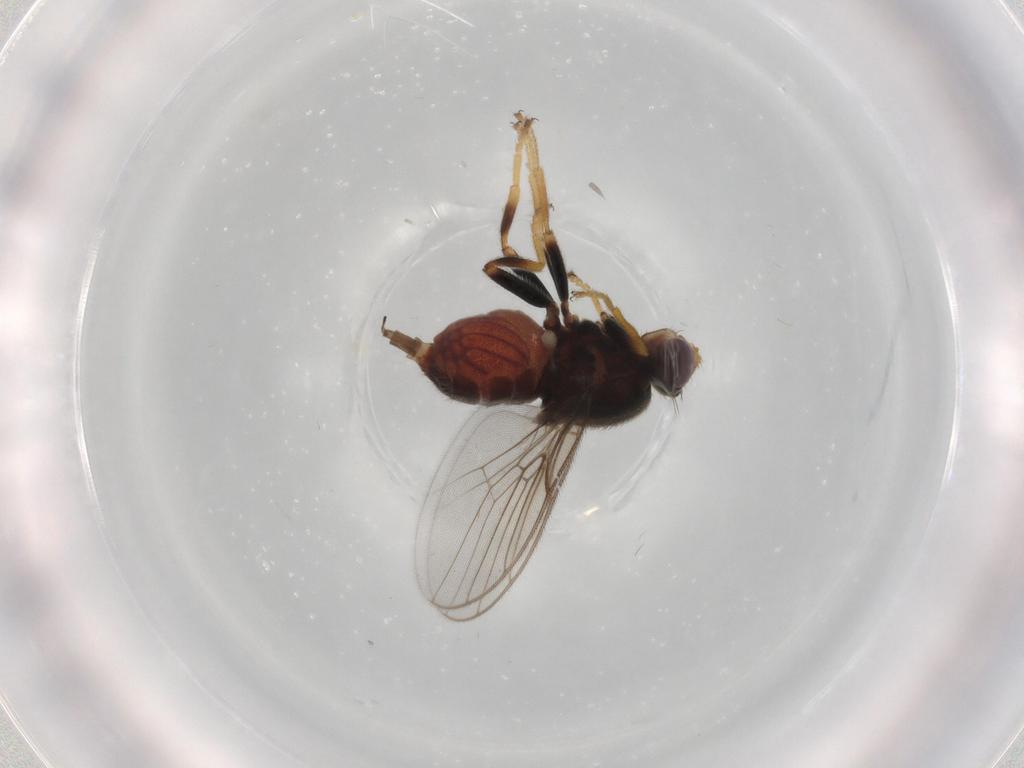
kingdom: Animalia
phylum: Arthropoda
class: Insecta
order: Diptera
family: Chloropidae
